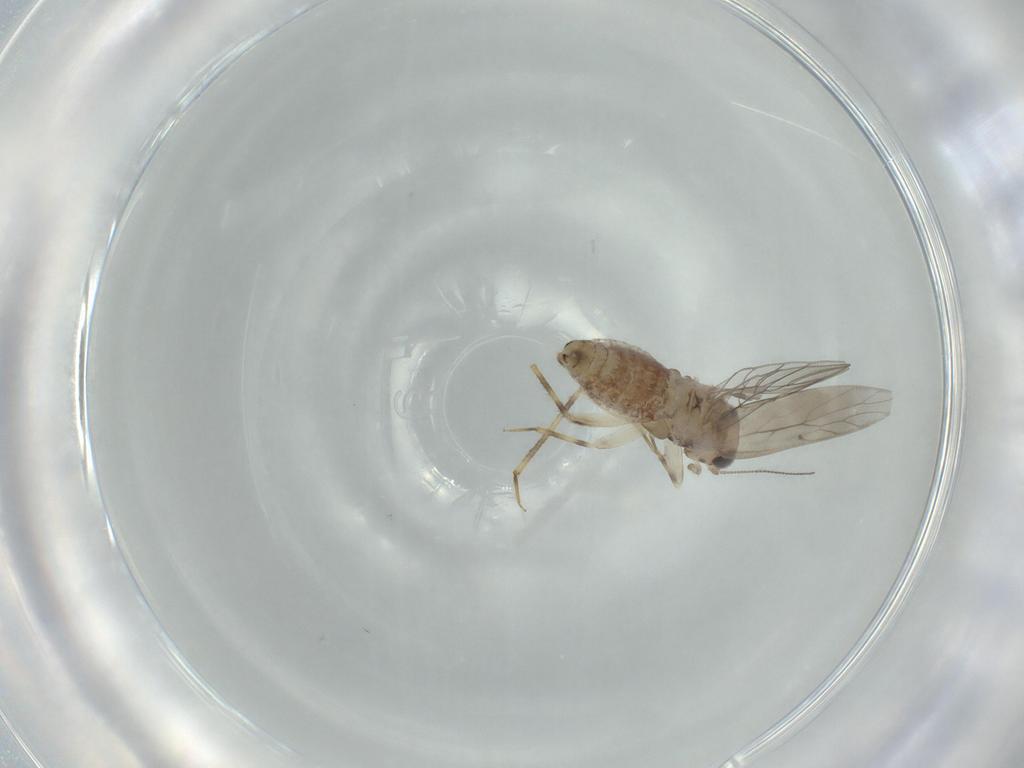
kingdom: Animalia
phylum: Arthropoda
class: Insecta
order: Psocodea
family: Lepidopsocidae
